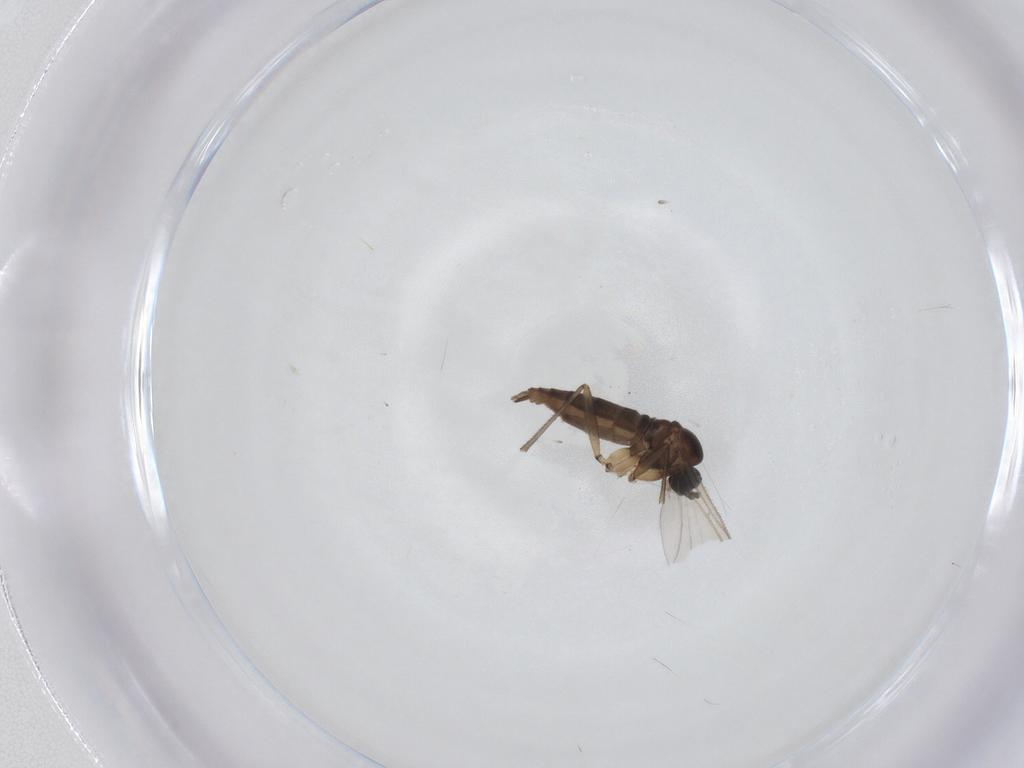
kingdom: Animalia
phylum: Arthropoda
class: Insecta
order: Diptera
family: Sciaridae
